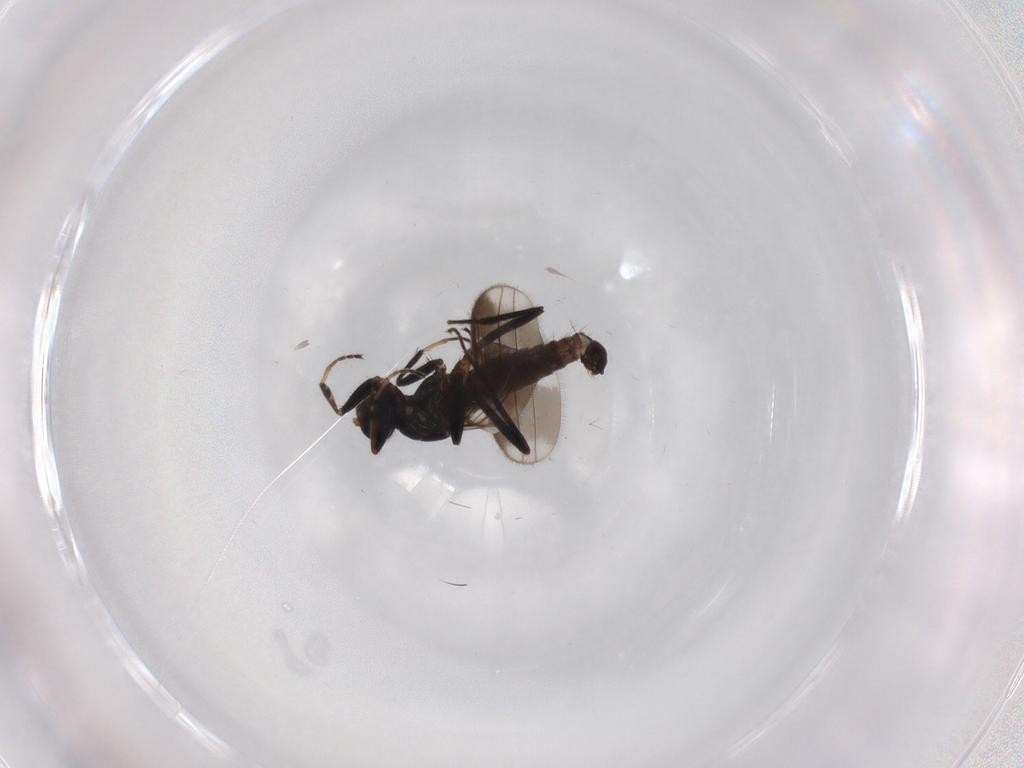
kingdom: Animalia
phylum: Arthropoda
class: Insecta
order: Diptera
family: Hybotidae
